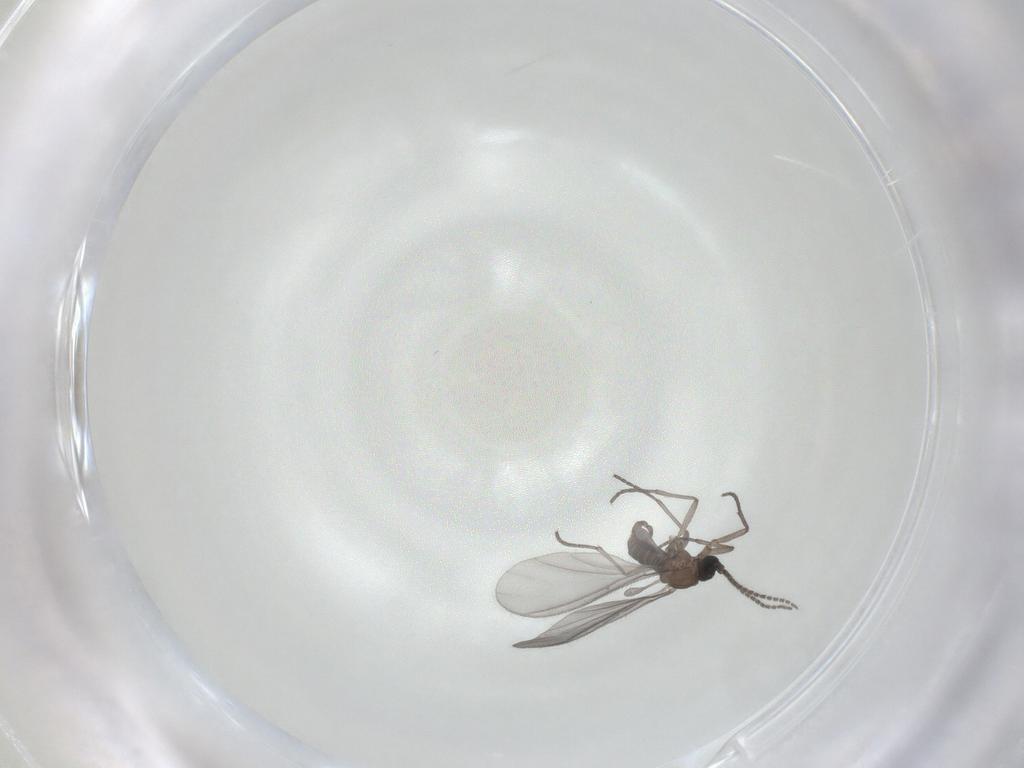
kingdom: Animalia
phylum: Arthropoda
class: Insecta
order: Diptera
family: Sciaridae
